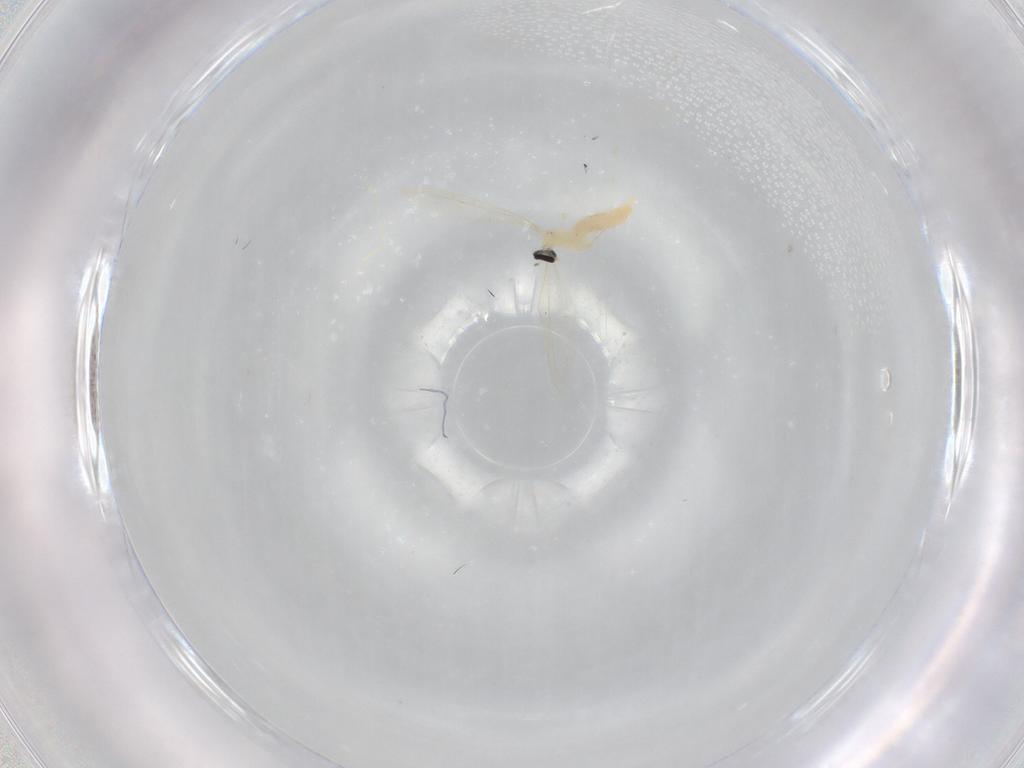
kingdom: Animalia
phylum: Arthropoda
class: Insecta
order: Diptera
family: Cecidomyiidae
